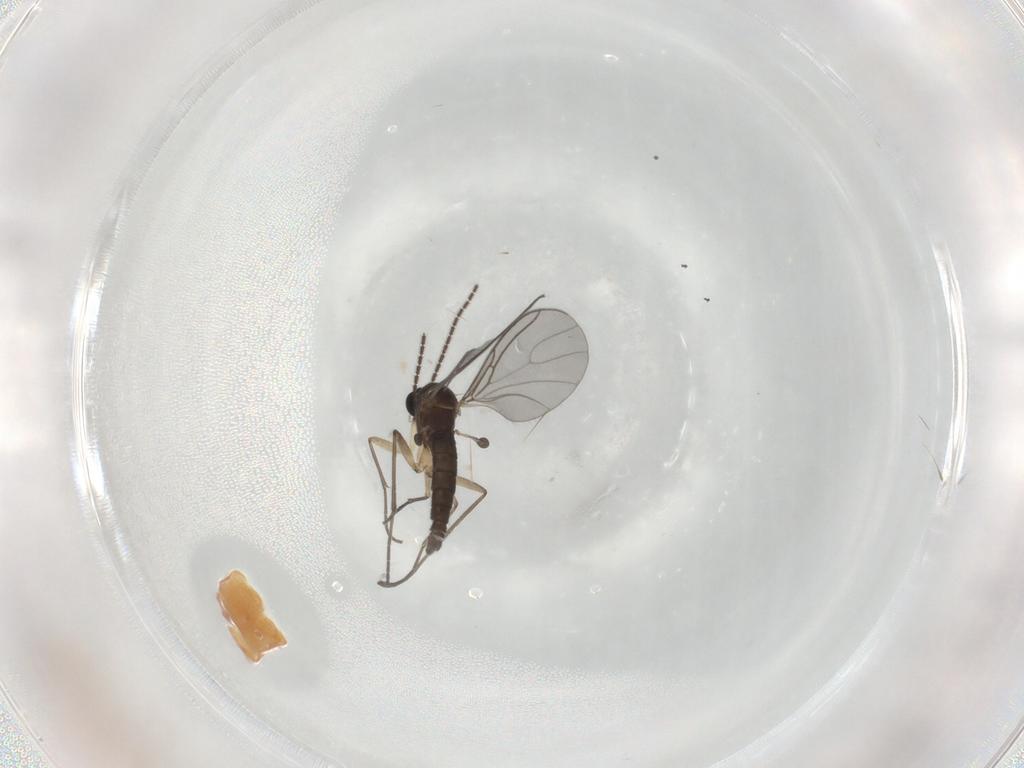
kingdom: Animalia
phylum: Arthropoda
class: Insecta
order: Diptera
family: Sciaridae
